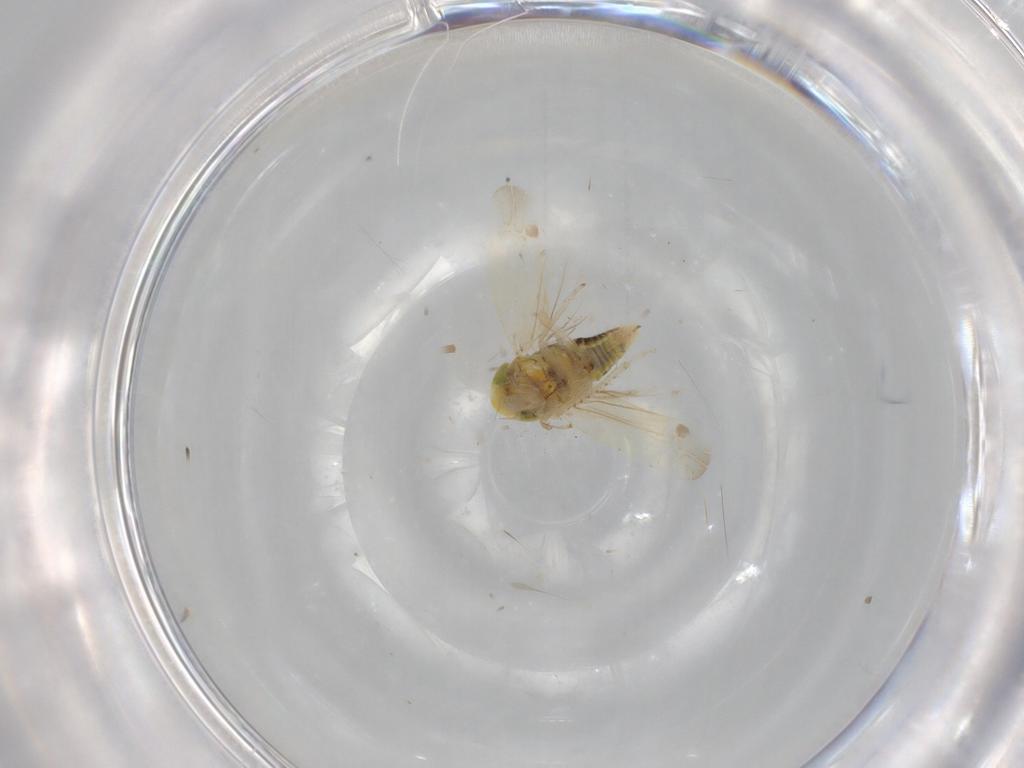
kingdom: Animalia
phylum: Arthropoda
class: Insecta
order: Hemiptera
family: Cicadellidae
